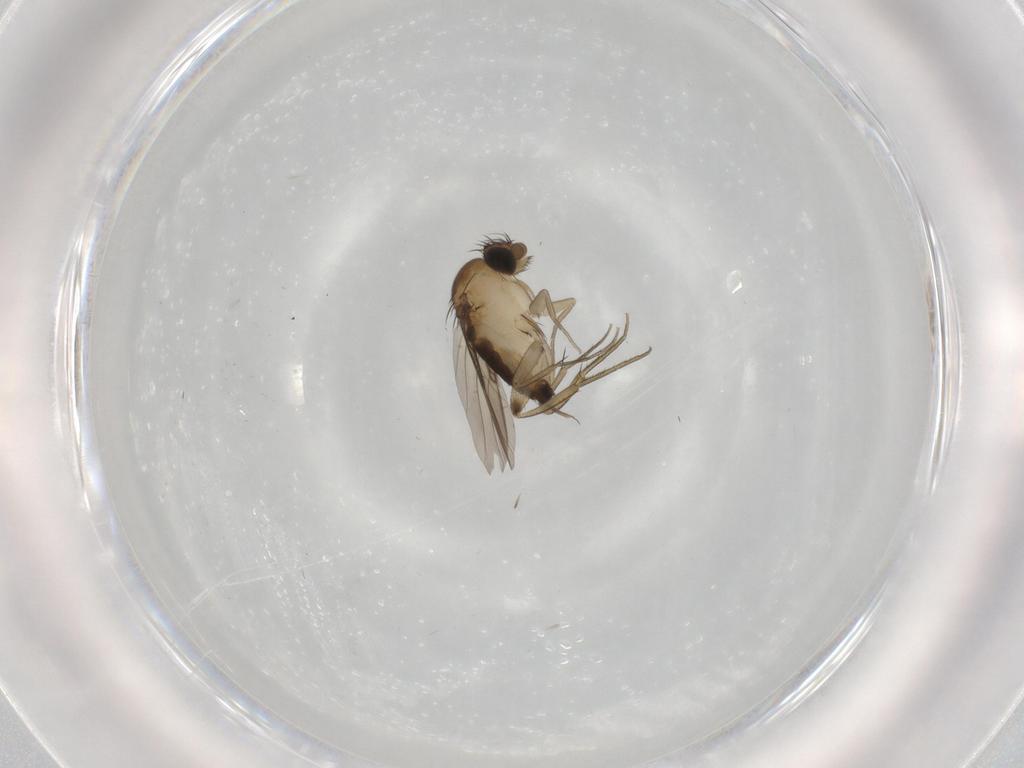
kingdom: Animalia
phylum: Arthropoda
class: Insecta
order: Diptera
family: Phoridae
